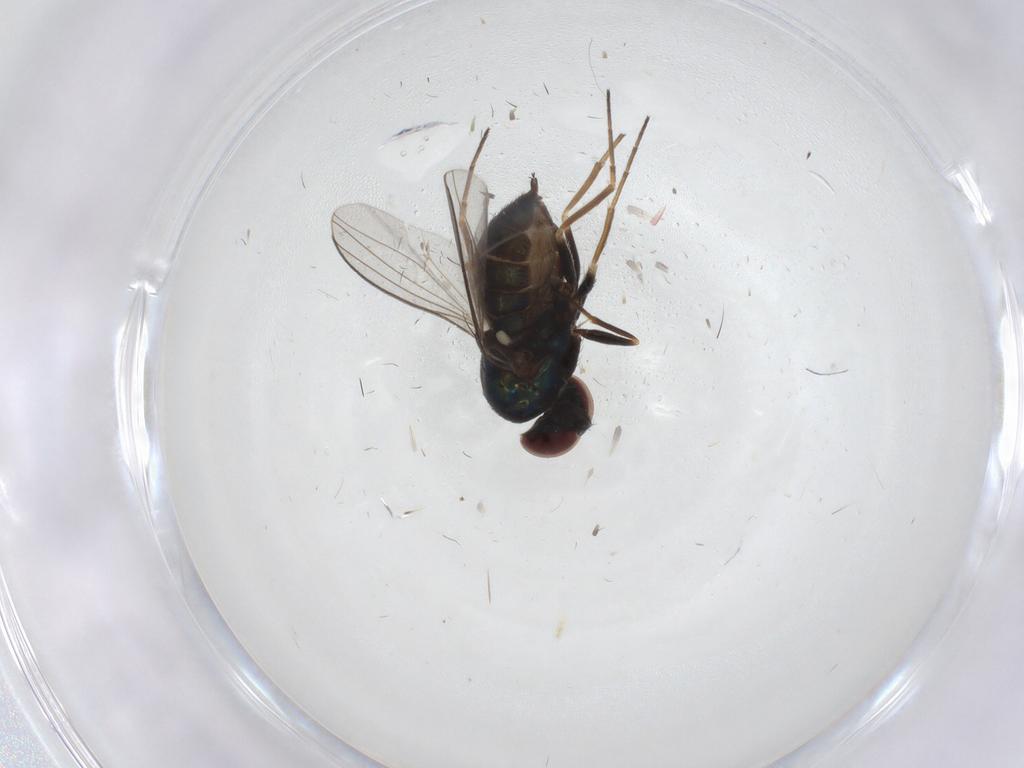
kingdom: Animalia
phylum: Arthropoda
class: Insecta
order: Diptera
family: Dolichopodidae
